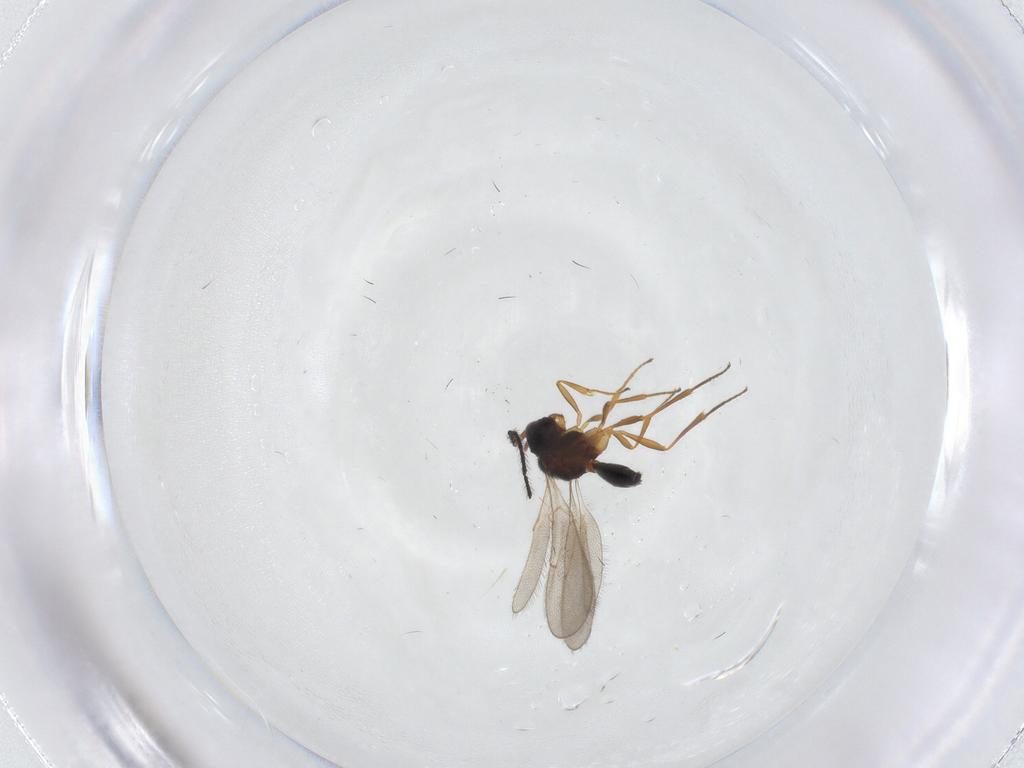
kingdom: Animalia
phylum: Arthropoda
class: Insecta
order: Hymenoptera
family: Scelionidae
